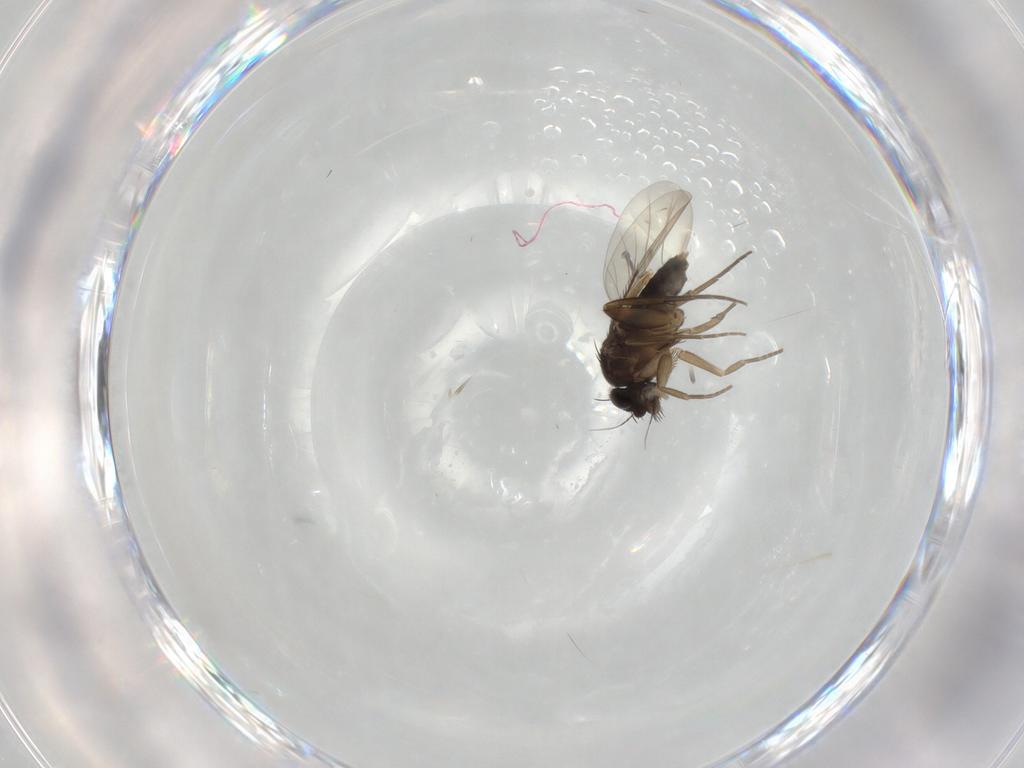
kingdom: Animalia
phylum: Arthropoda
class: Insecta
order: Diptera
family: Phoridae
